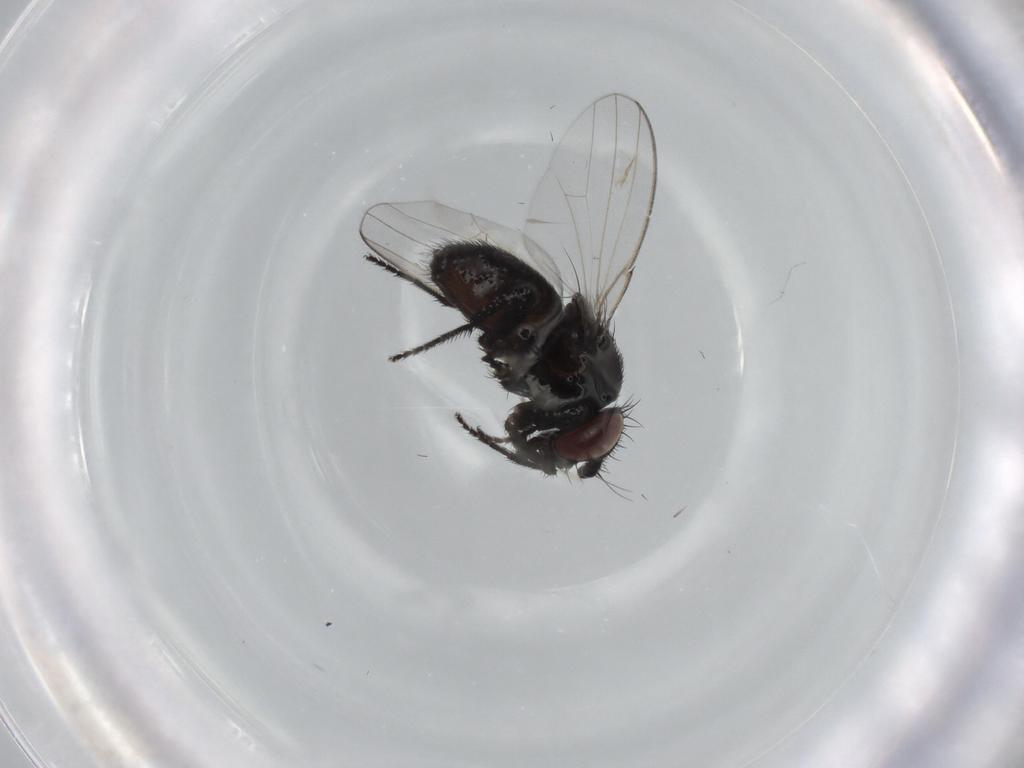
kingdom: Animalia
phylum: Arthropoda
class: Insecta
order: Diptera
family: Milichiidae
